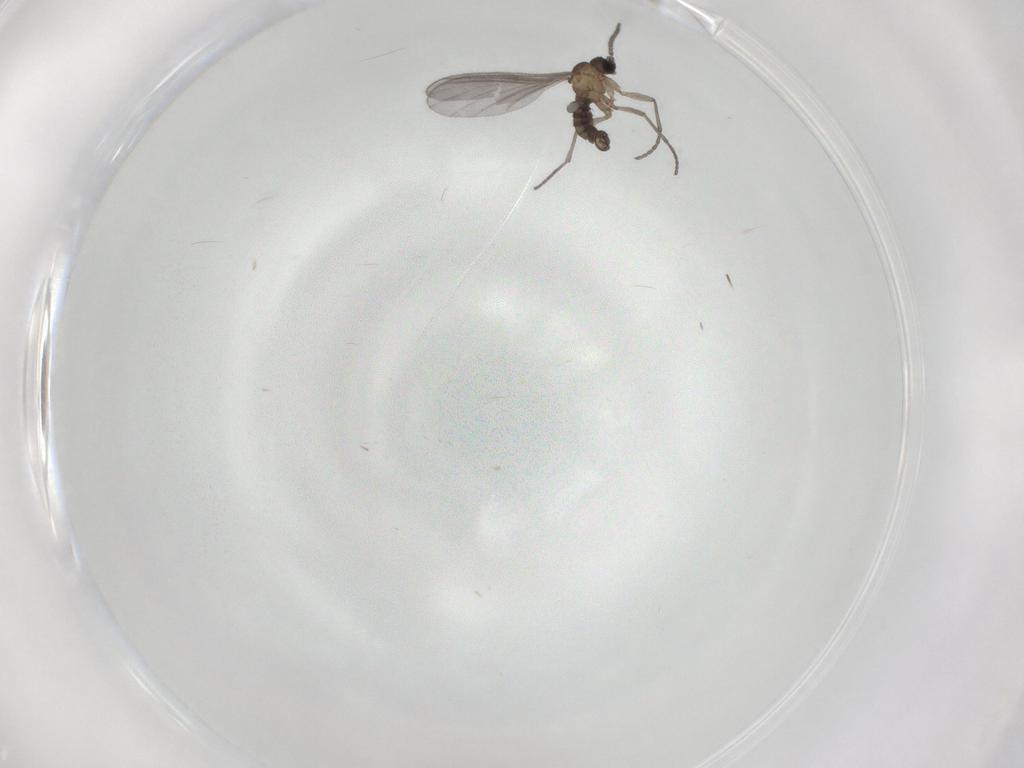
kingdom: Animalia
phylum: Arthropoda
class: Insecta
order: Diptera
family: Sciaridae
